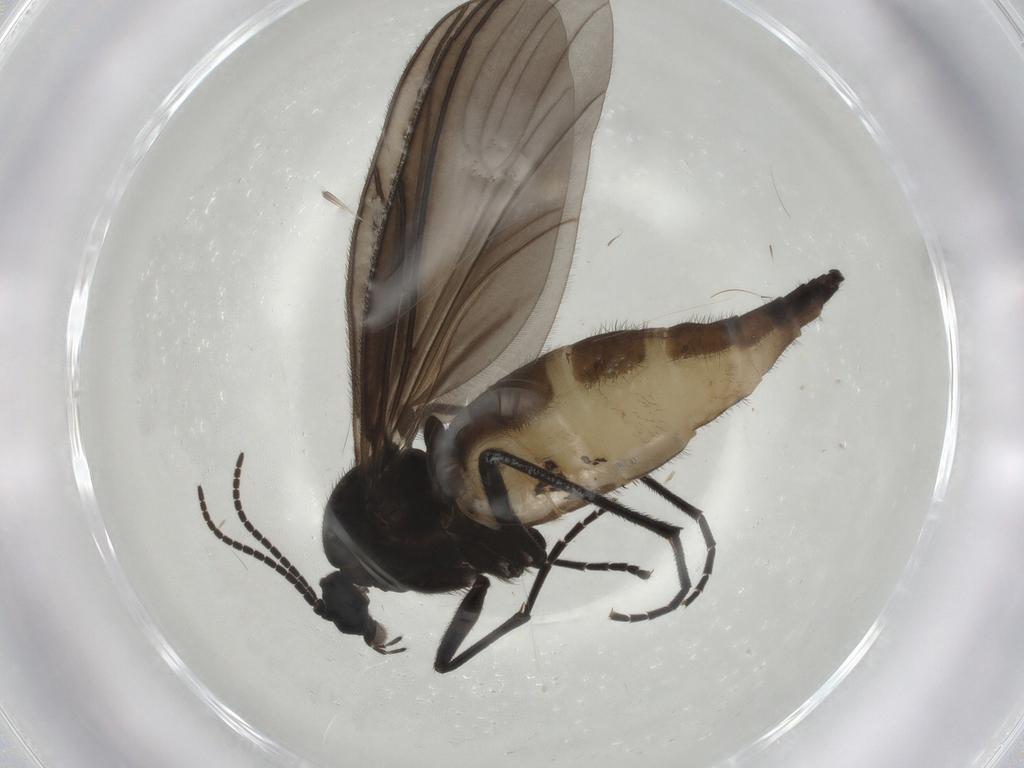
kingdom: Animalia
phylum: Arthropoda
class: Insecta
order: Diptera
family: Sciaridae
